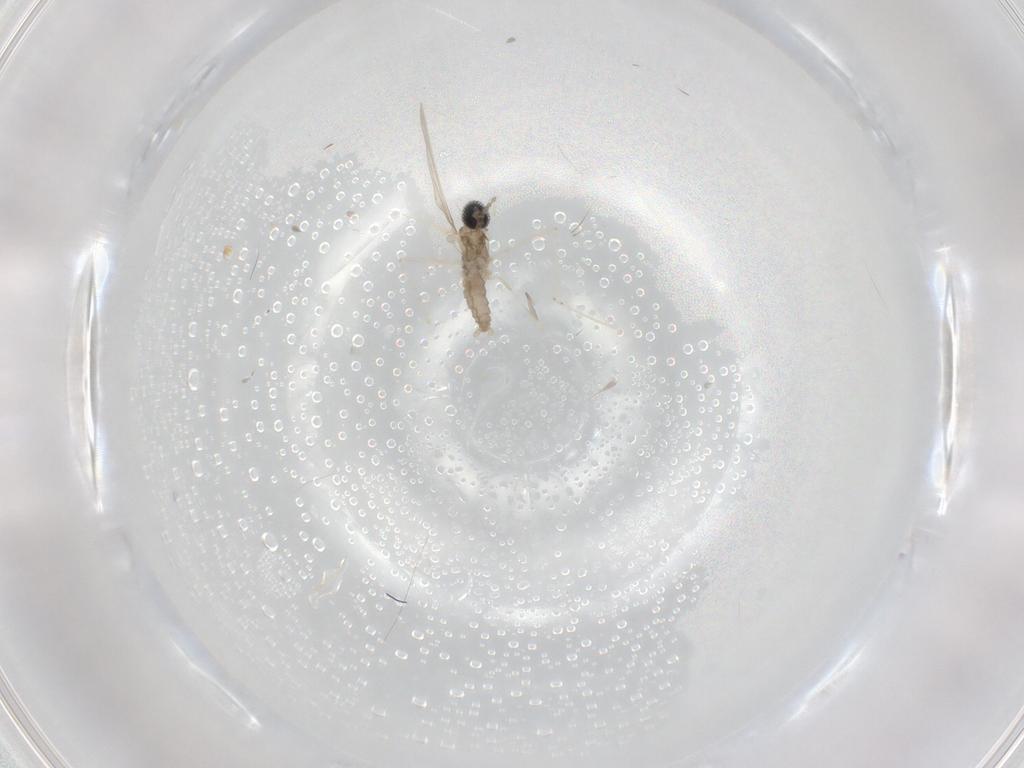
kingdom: Animalia
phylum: Arthropoda
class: Insecta
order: Diptera
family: Cecidomyiidae
